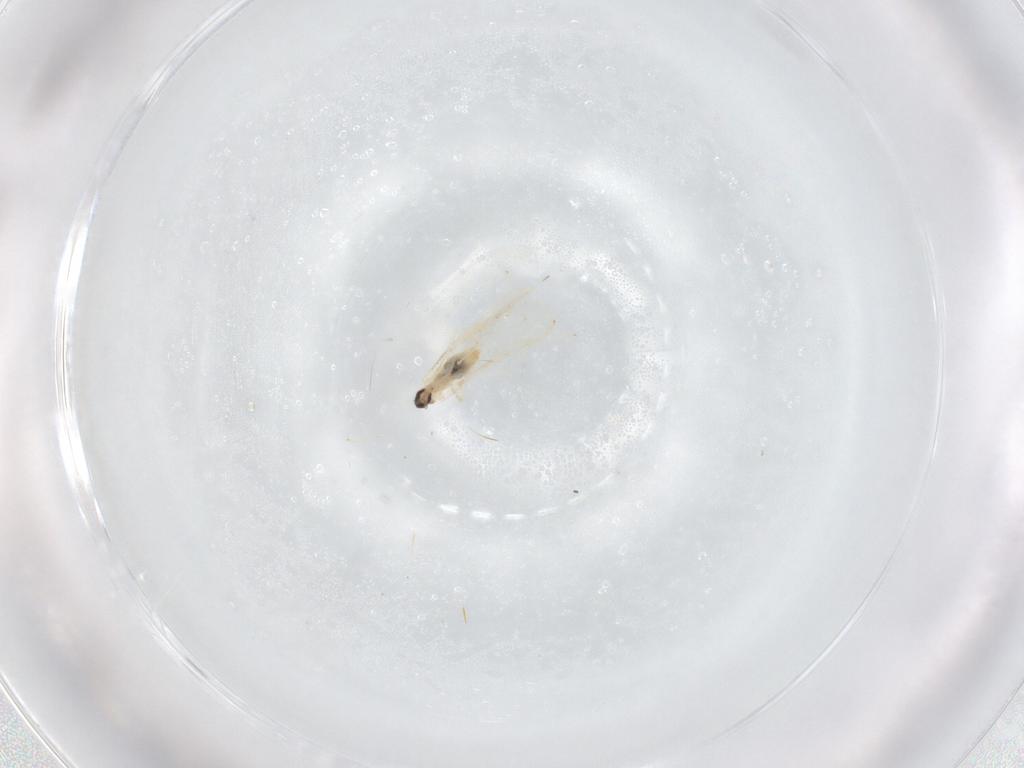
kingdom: Animalia
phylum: Arthropoda
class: Insecta
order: Diptera
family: Cecidomyiidae
